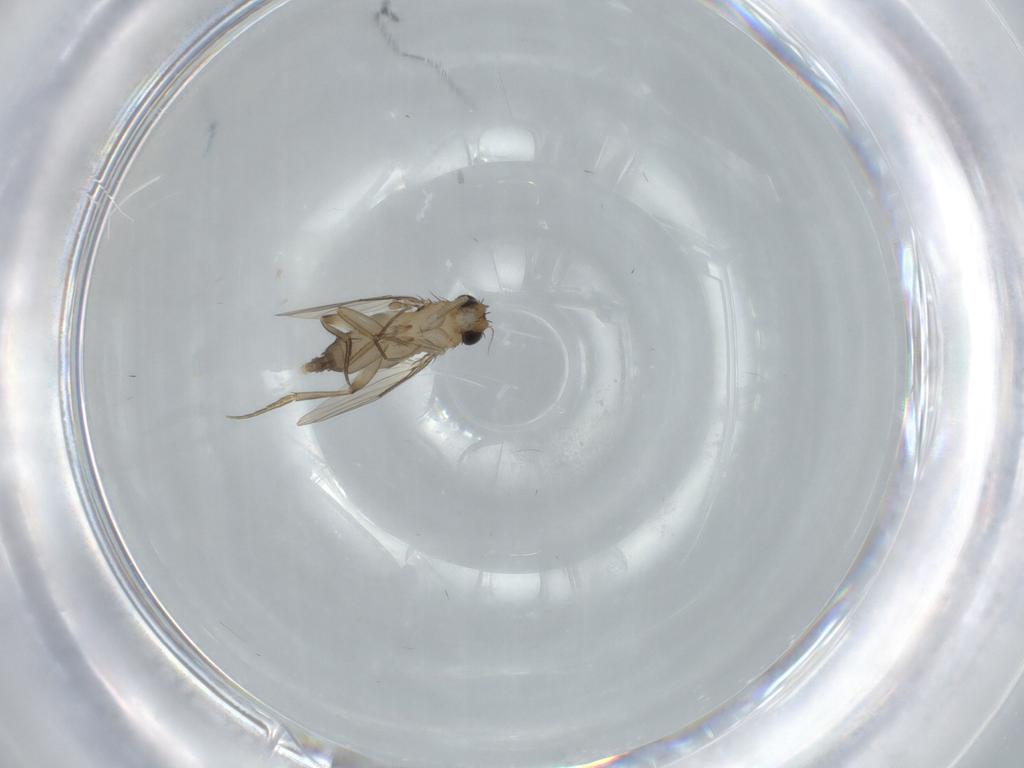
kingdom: Animalia
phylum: Arthropoda
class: Insecta
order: Diptera
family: Phoridae
